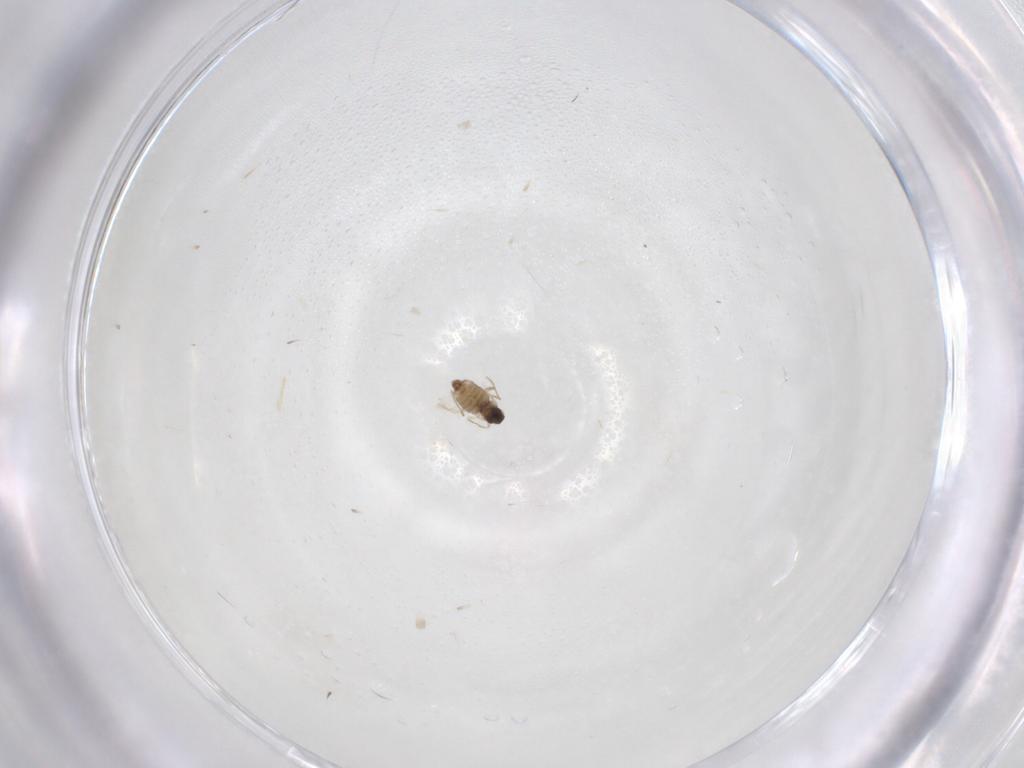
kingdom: Animalia
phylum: Arthropoda
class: Insecta
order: Diptera
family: Cecidomyiidae
